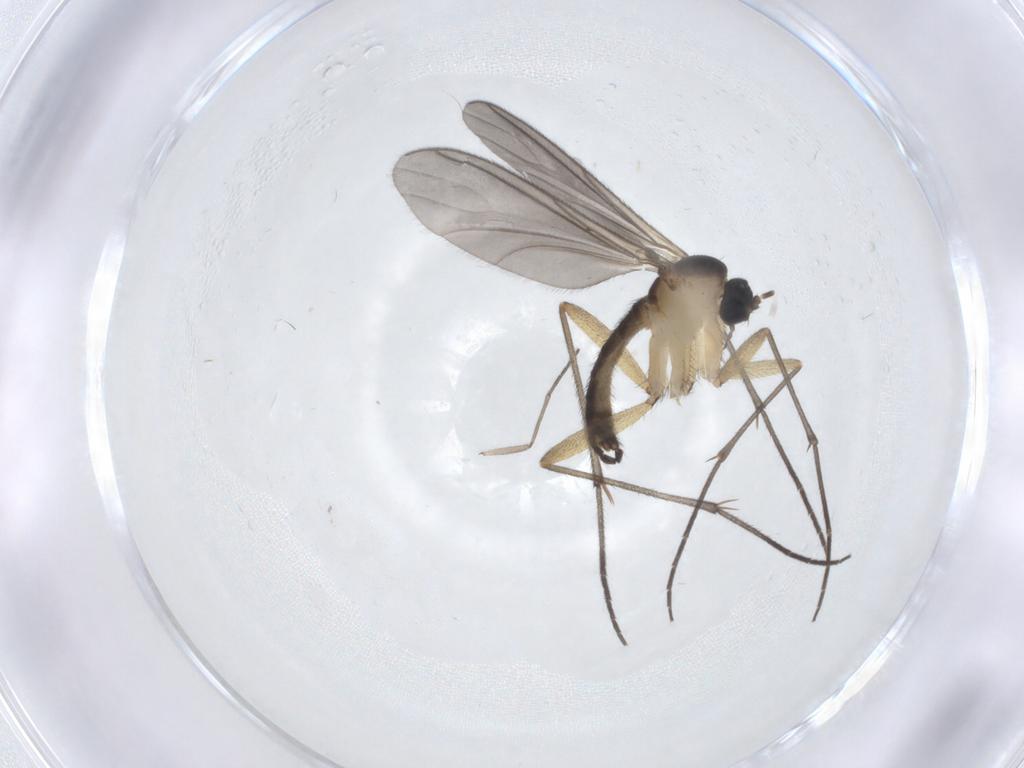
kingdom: Animalia
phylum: Arthropoda
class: Insecta
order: Diptera
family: Sciaridae
